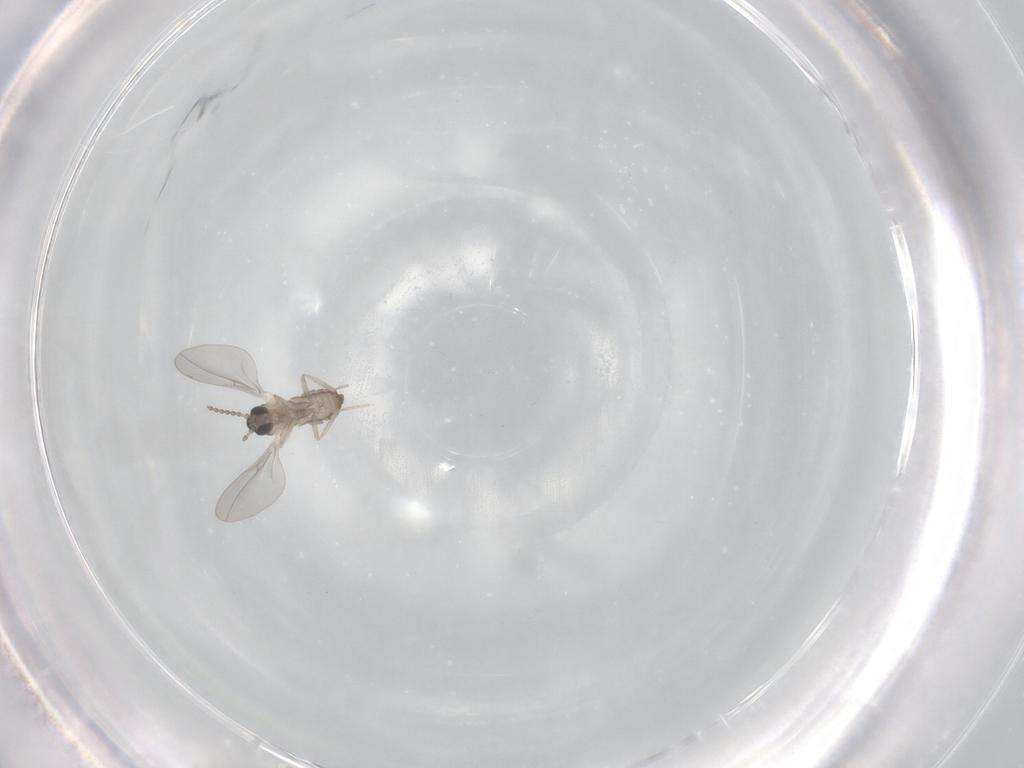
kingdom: Animalia
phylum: Arthropoda
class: Insecta
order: Diptera
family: Cecidomyiidae
